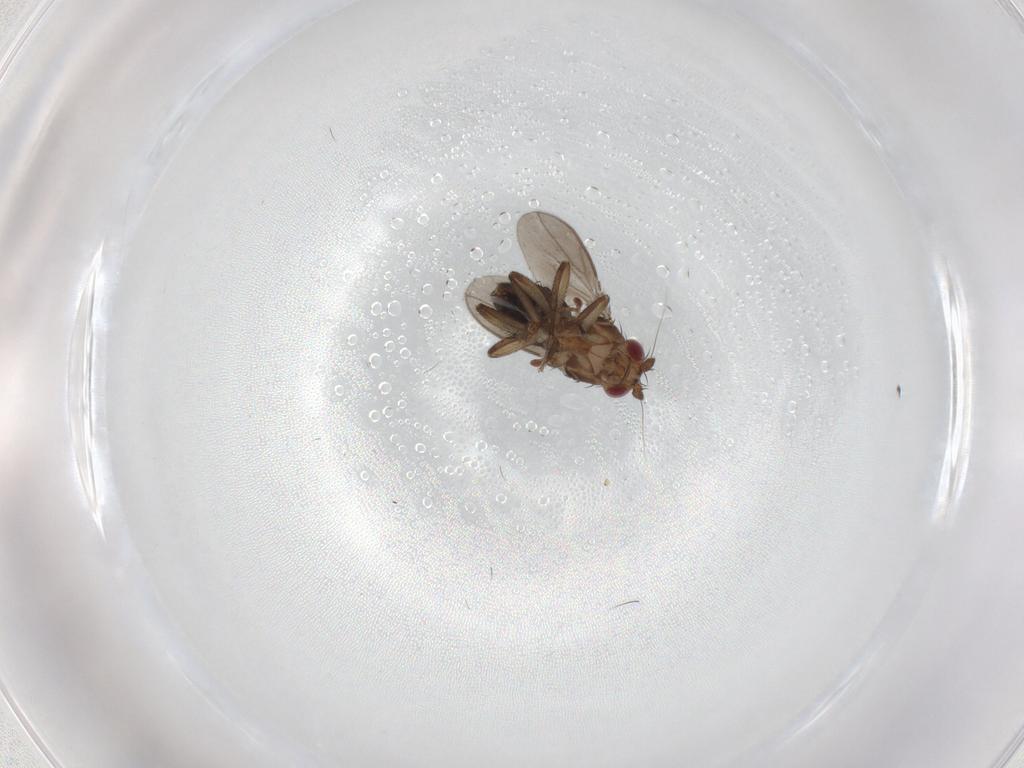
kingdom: Animalia
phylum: Arthropoda
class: Insecta
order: Diptera
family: Sphaeroceridae
